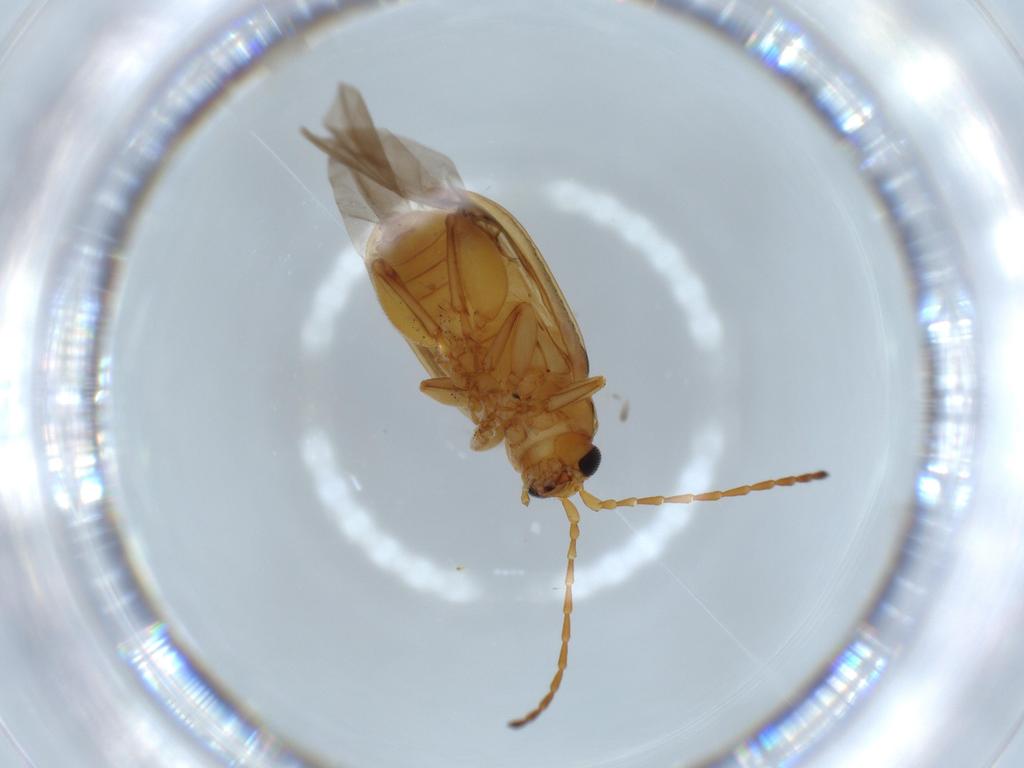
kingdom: Animalia
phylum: Arthropoda
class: Insecta
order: Coleoptera
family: Chrysomelidae
